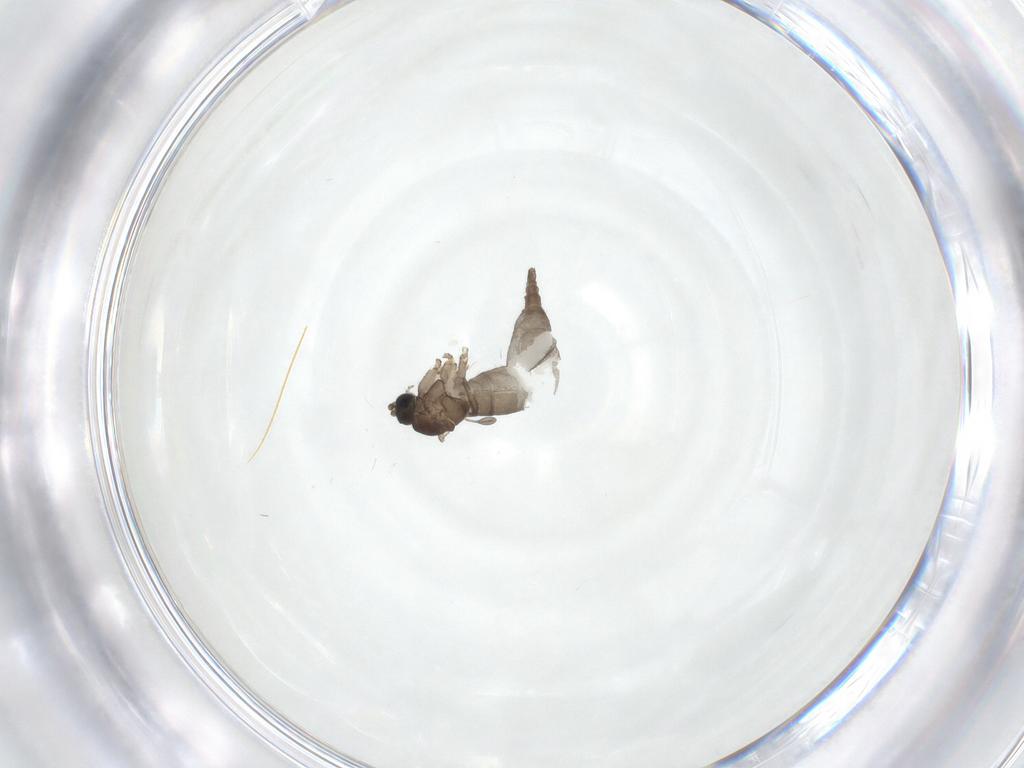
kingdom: Animalia
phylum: Arthropoda
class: Insecta
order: Diptera
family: Sciaridae
